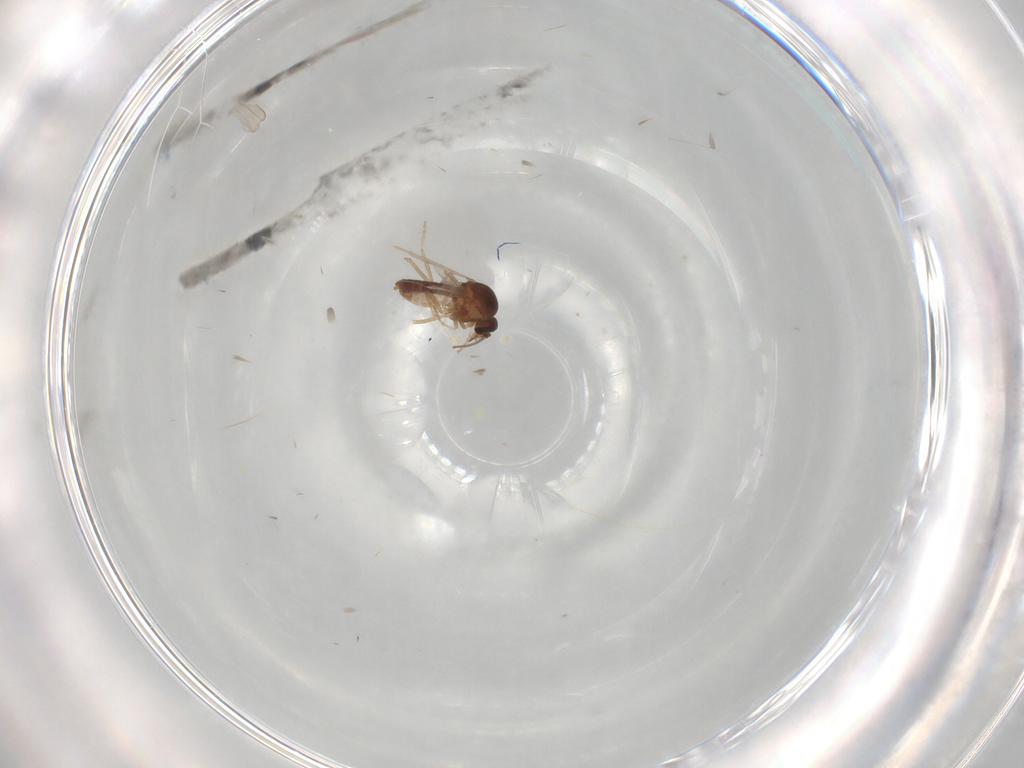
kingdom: Animalia
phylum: Arthropoda
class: Insecta
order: Diptera
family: Ceratopogonidae
